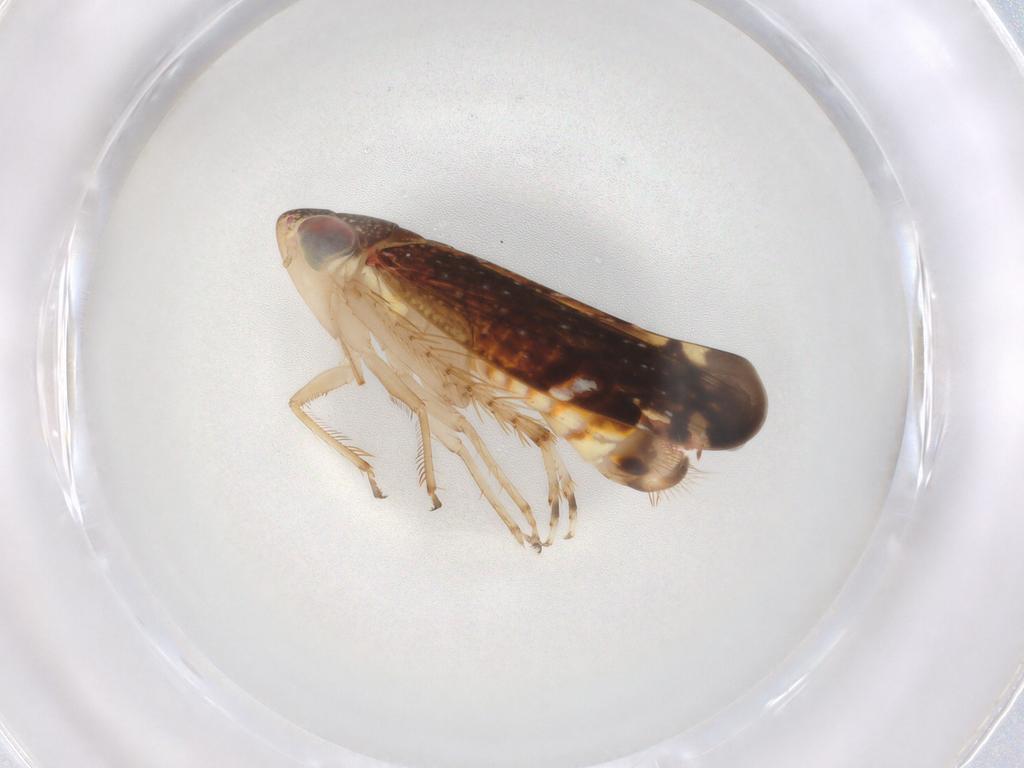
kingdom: Animalia
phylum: Arthropoda
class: Insecta
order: Hemiptera
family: Cicadellidae
